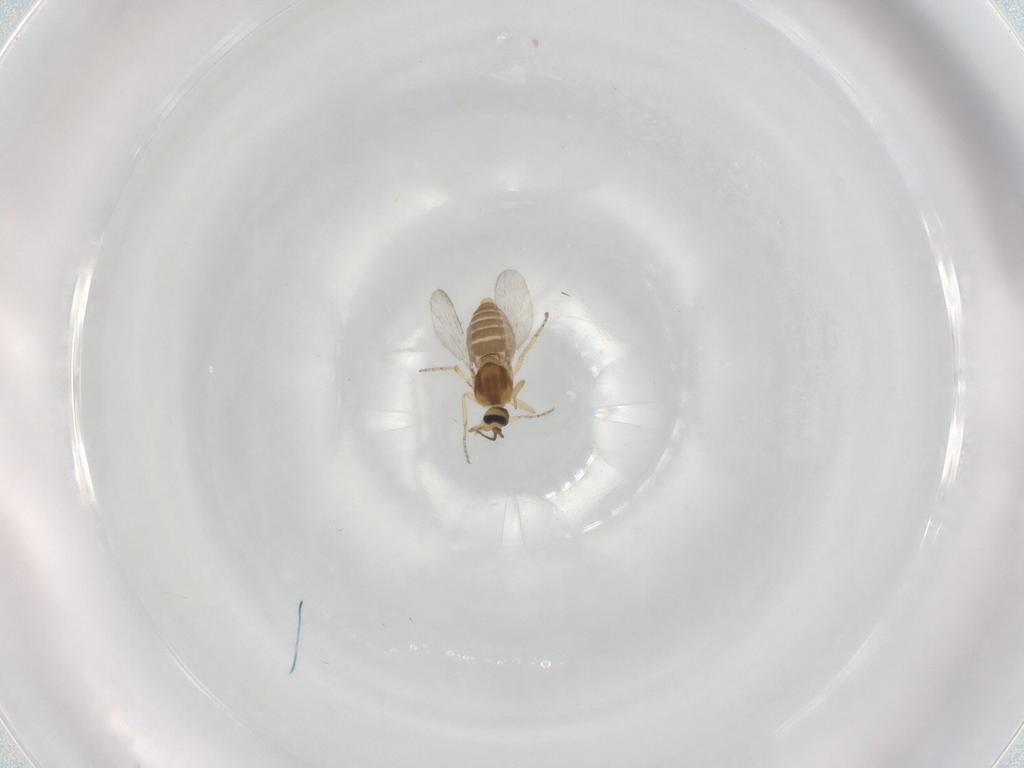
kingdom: Animalia
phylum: Arthropoda
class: Insecta
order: Diptera
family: Ceratopogonidae
